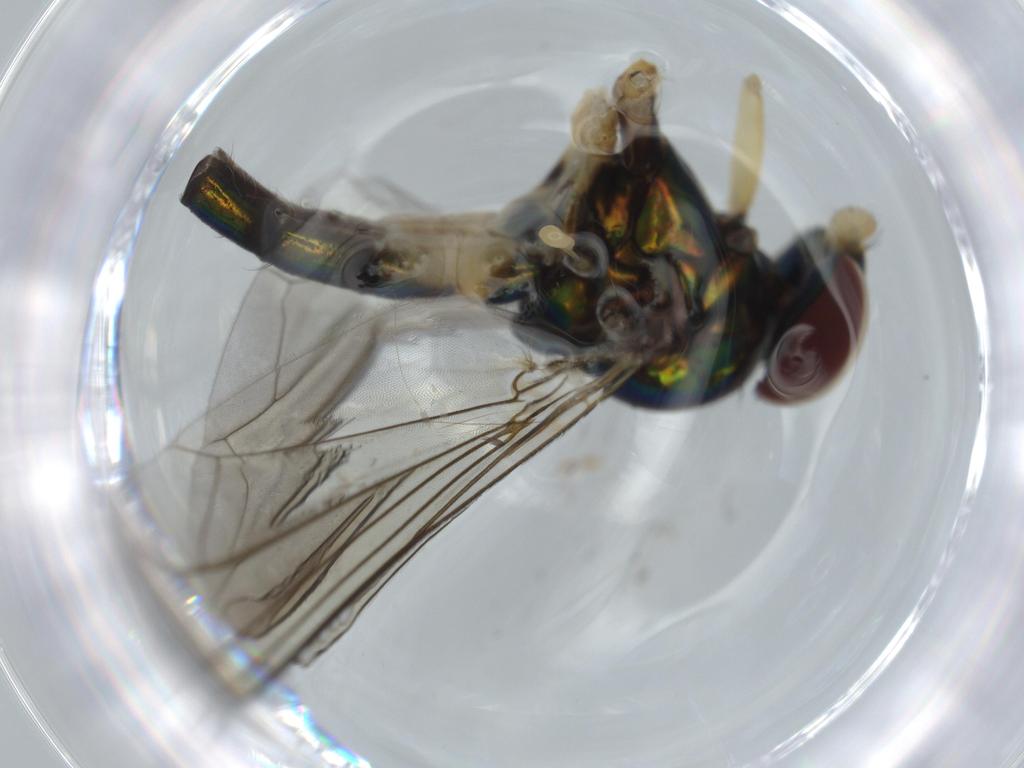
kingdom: Animalia
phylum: Arthropoda
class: Insecta
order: Diptera
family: Dolichopodidae
